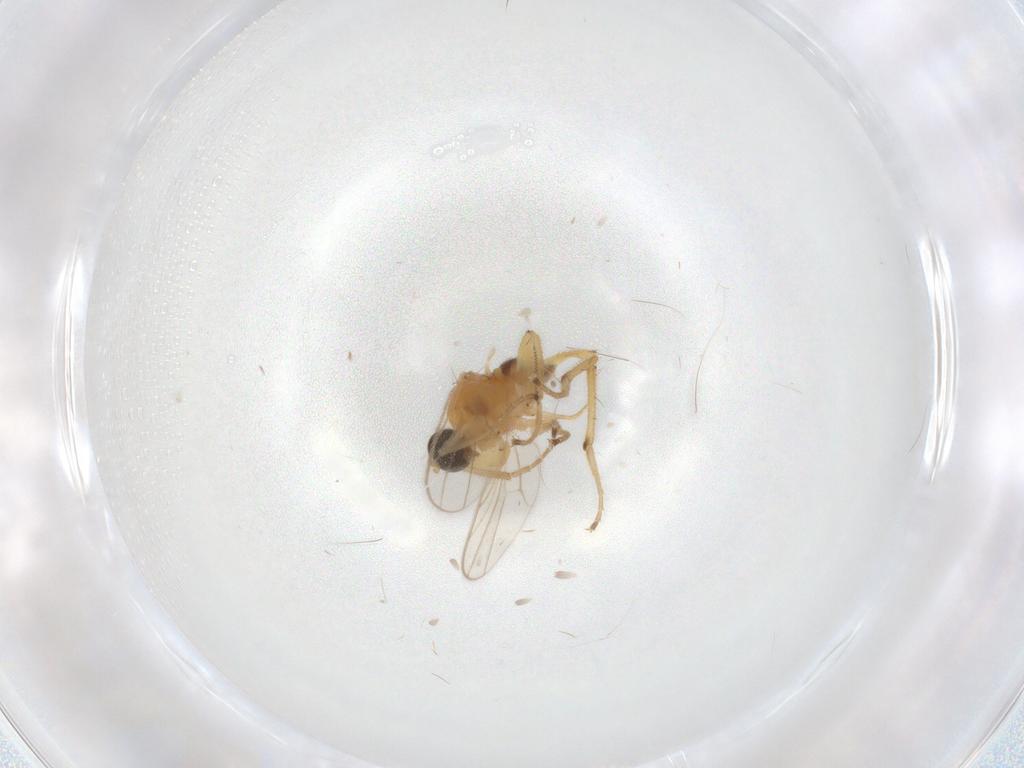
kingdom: Animalia
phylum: Arthropoda
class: Insecta
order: Diptera
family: Hybotidae
